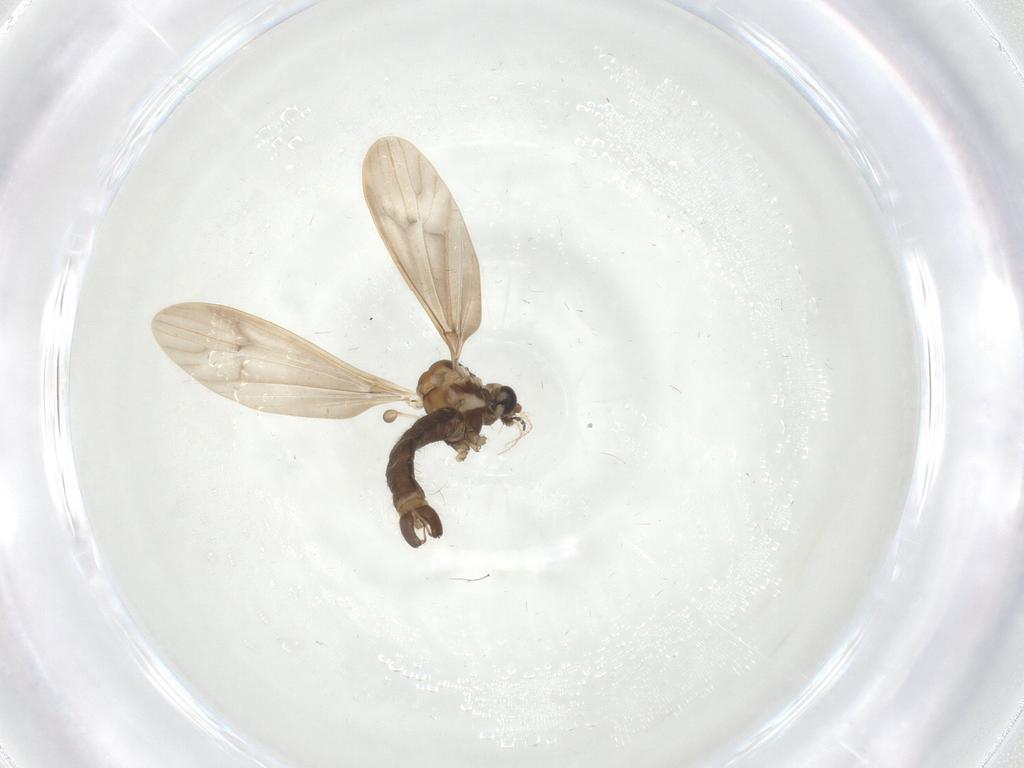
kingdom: Animalia
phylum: Arthropoda
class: Insecta
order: Diptera
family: Limoniidae
